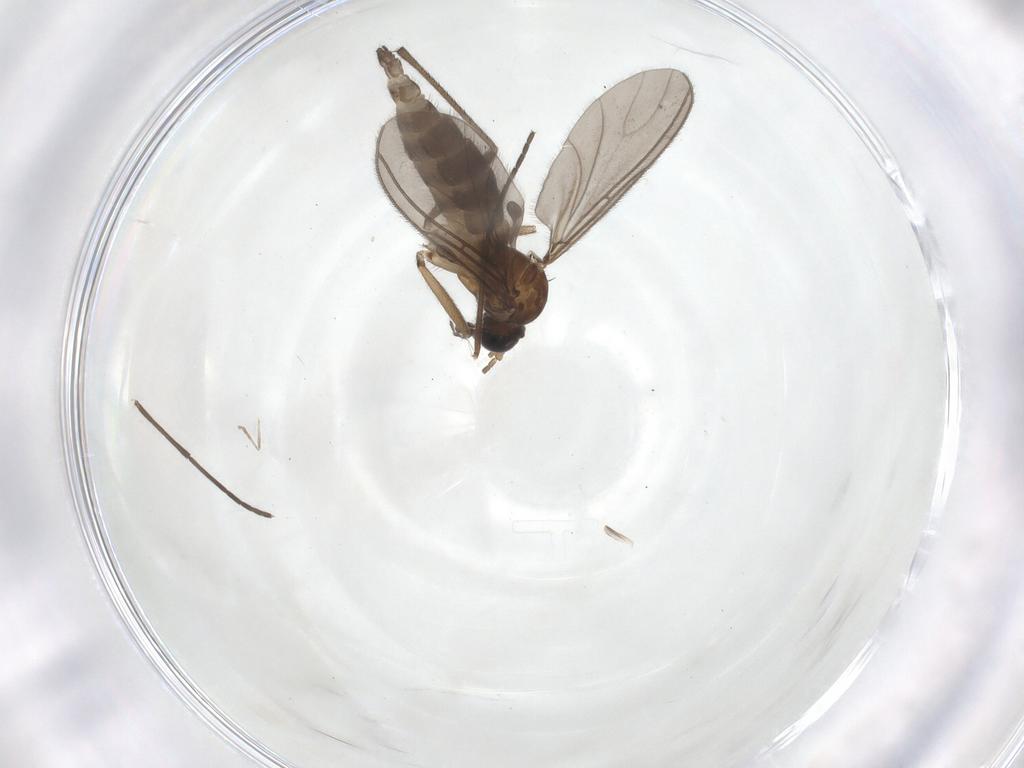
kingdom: Animalia
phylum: Arthropoda
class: Insecta
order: Diptera
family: Sciaridae
